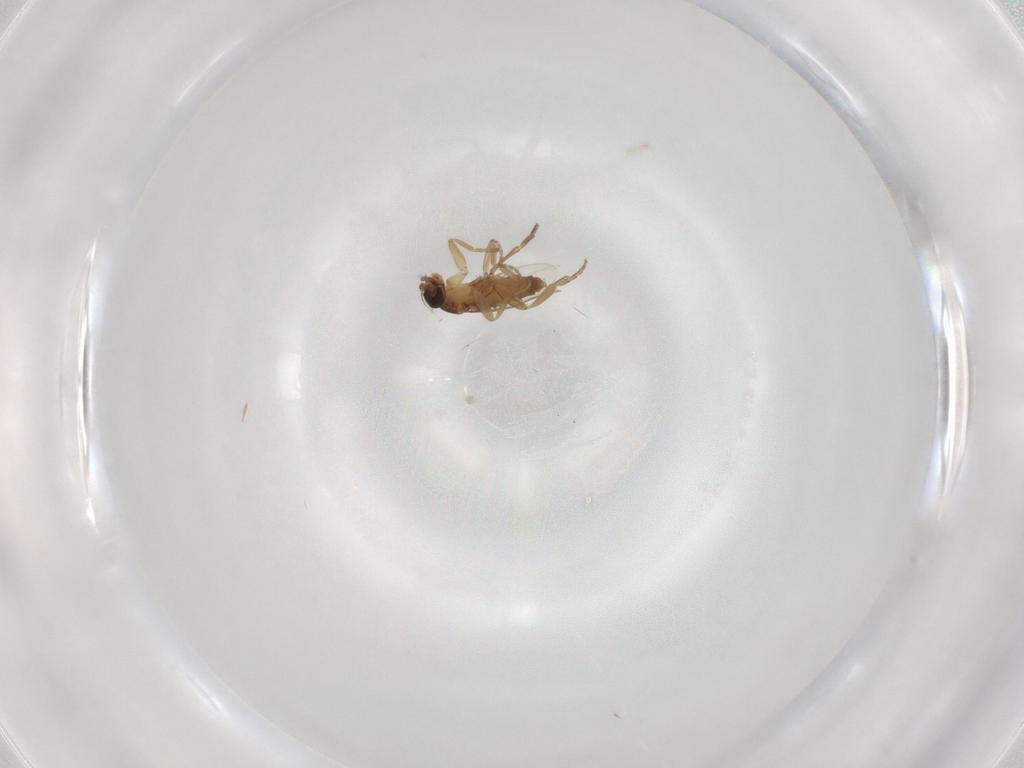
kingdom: Animalia
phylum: Arthropoda
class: Insecta
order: Diptera
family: Phoridae
